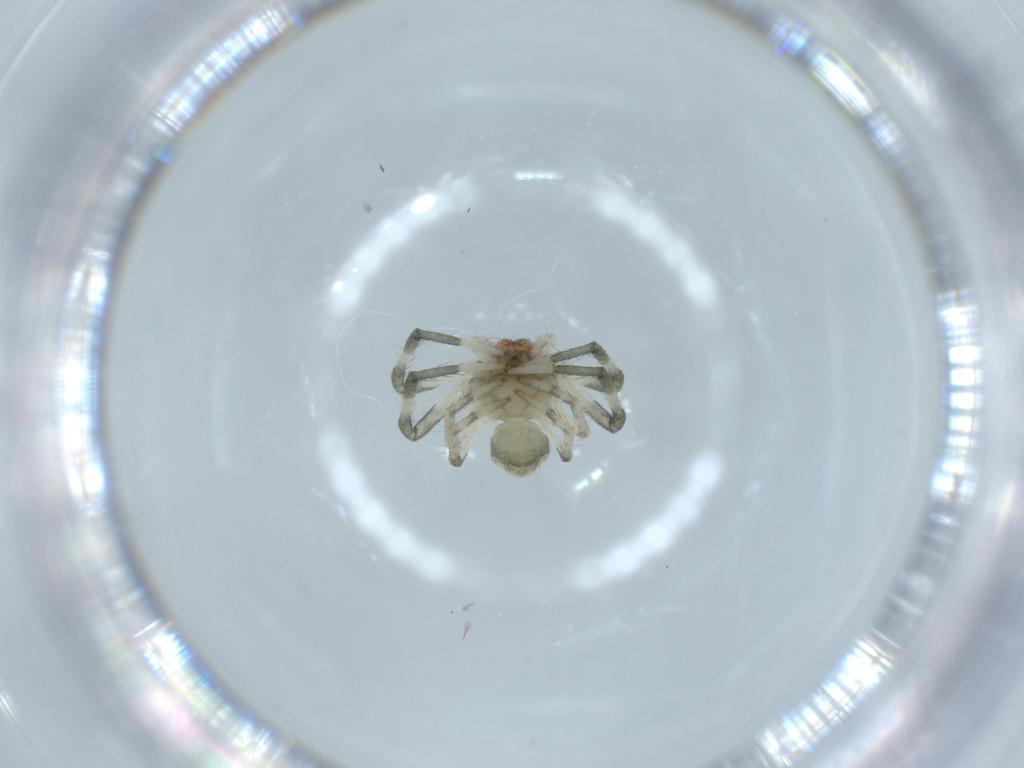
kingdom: Animalia
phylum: Arthropoda
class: Arachnida
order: Araneae
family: Thomisidae
